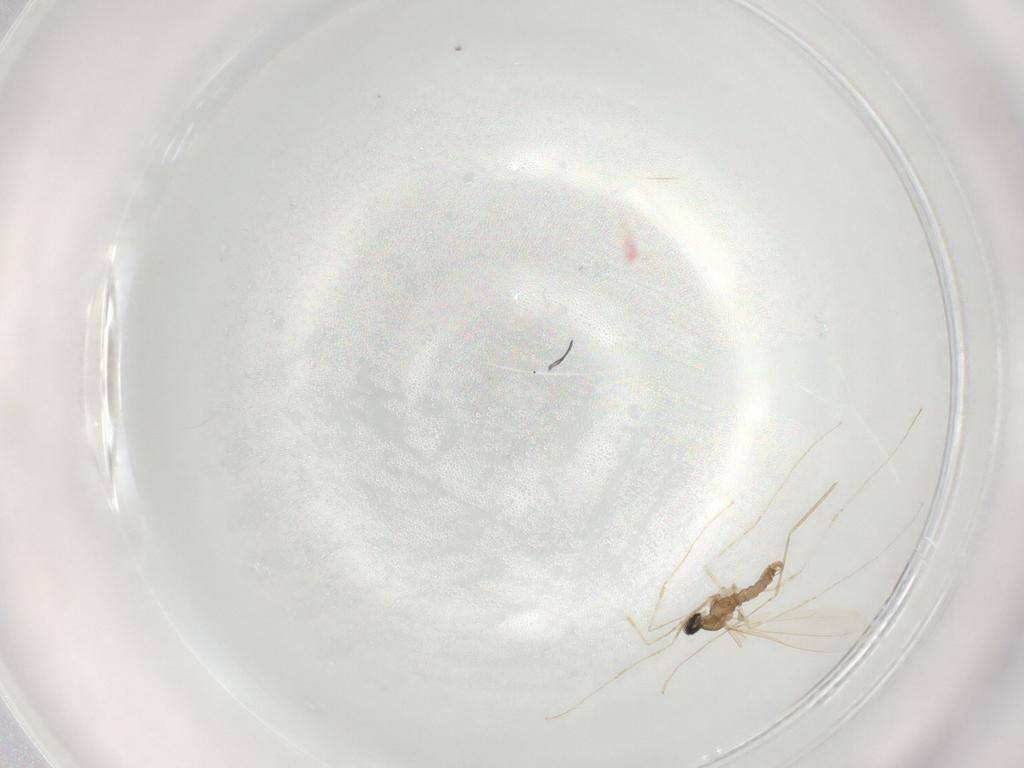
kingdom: Animalia
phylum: Arthropoda
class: Insecta
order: Diptera
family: Cecidomyiidae
